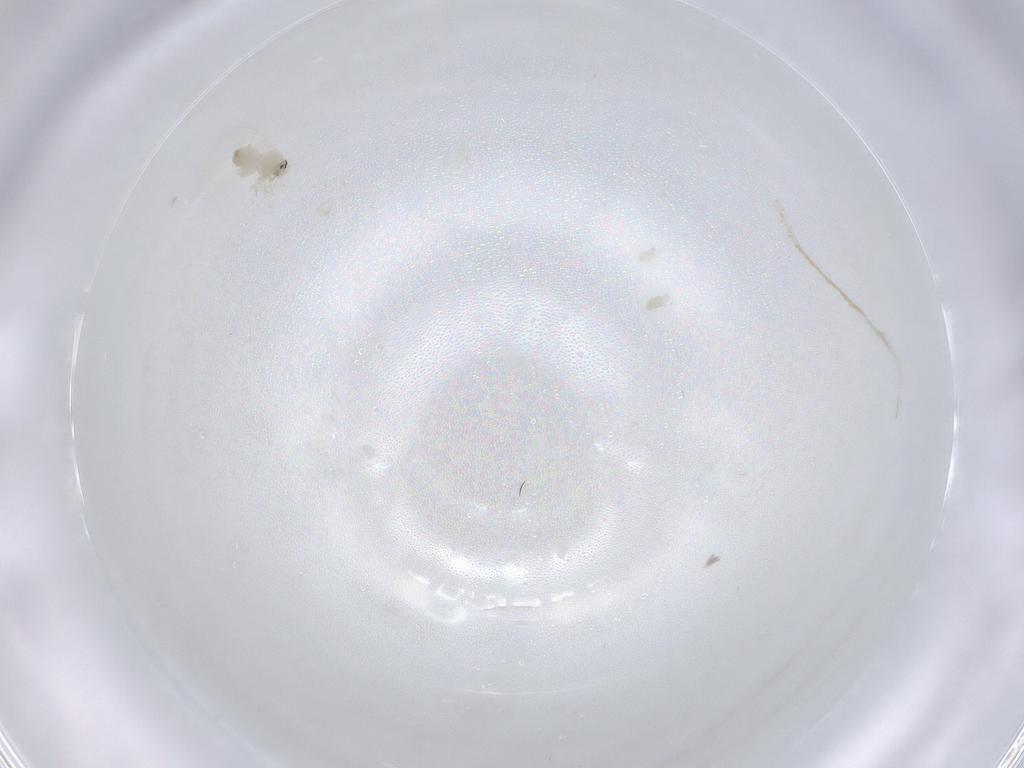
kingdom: Animalia
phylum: Arthropoda
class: Insecta
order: Hemiptera
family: Aleyrodidae
